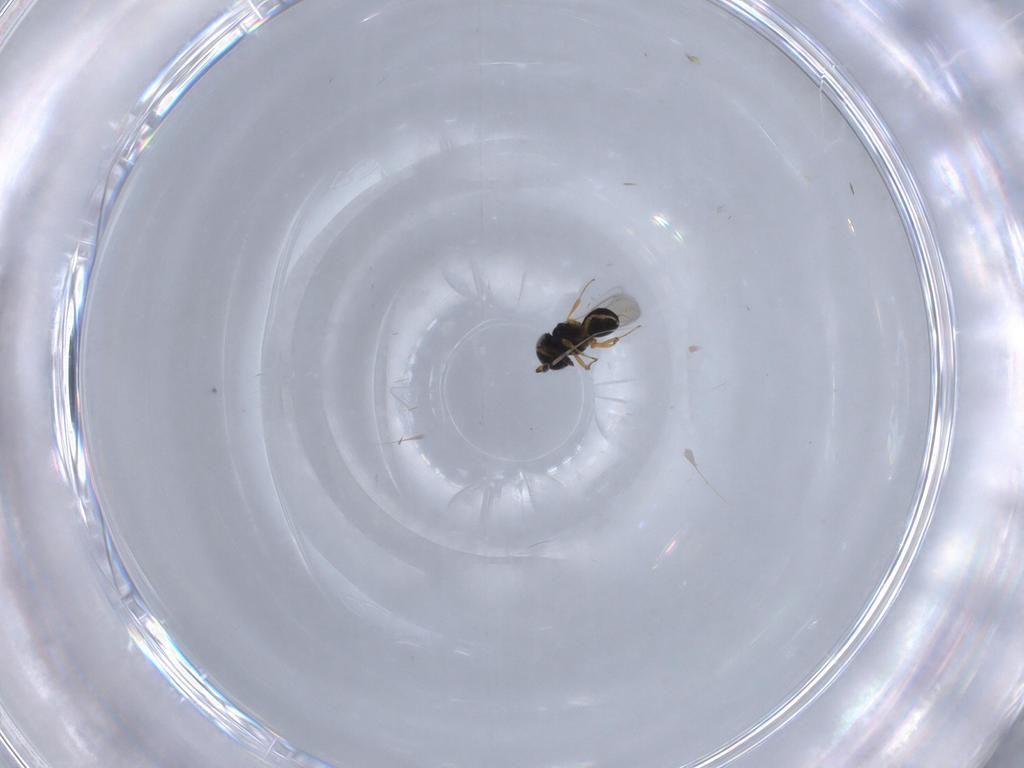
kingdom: Animalia
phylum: Arthropoda
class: Insecta
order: Hymenoptera
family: Scelionidae
